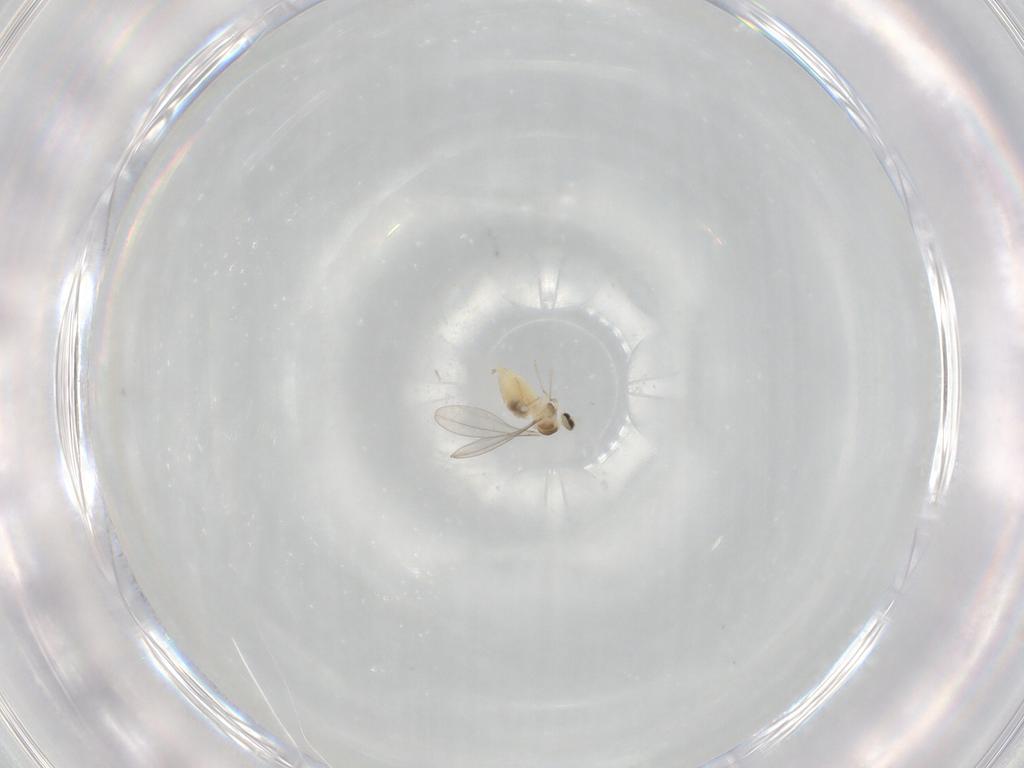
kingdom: Animalia
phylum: Arthropoda
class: Insecta
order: Diptera
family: Cecidomyiidae
